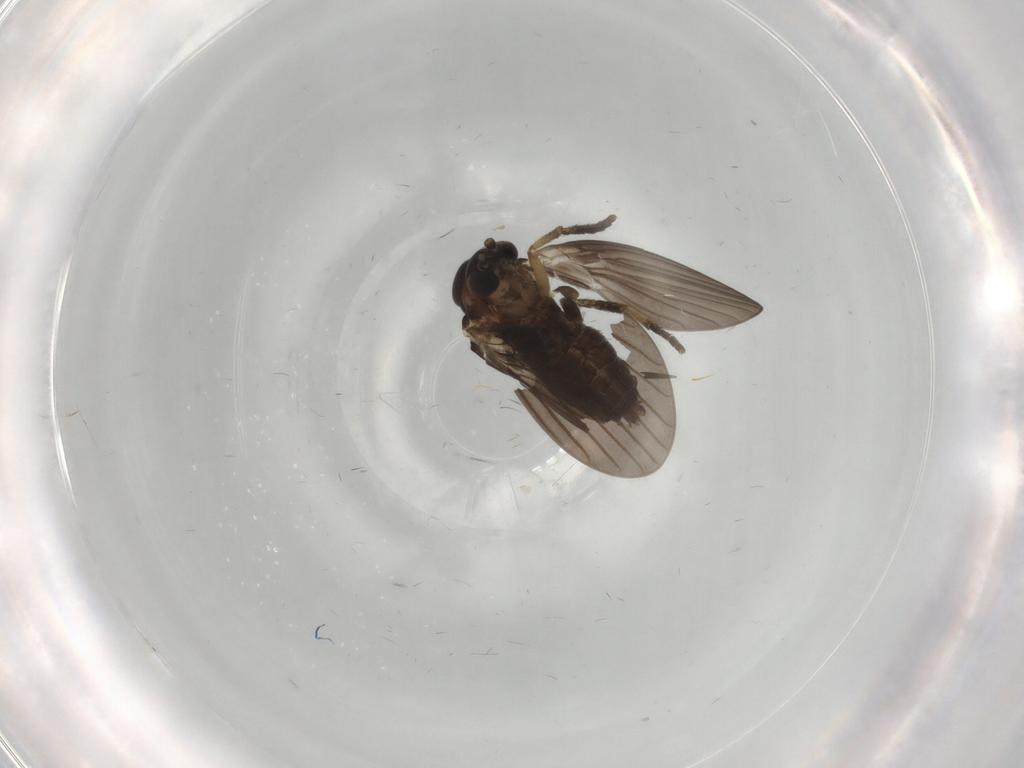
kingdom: Animalia
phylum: Arthropoda
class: Insecta
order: Diptera
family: Cecidomyiidae
